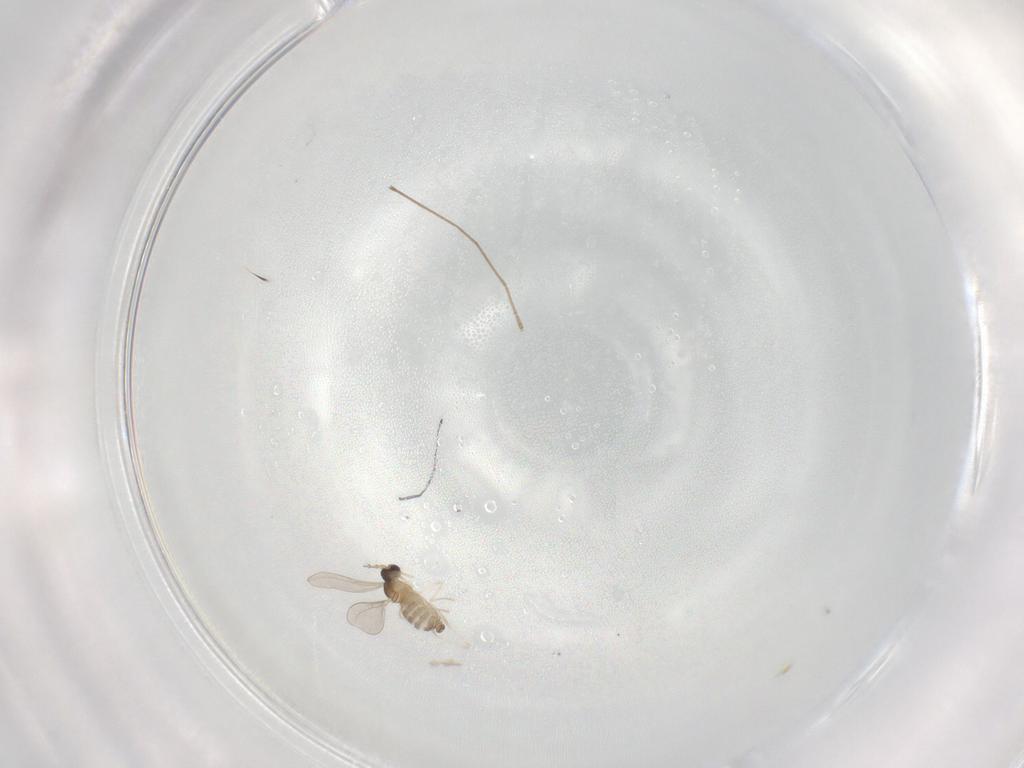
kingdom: Animalia
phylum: Arthropoda
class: Insecta
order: Diptera
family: Cecidomyiidae
